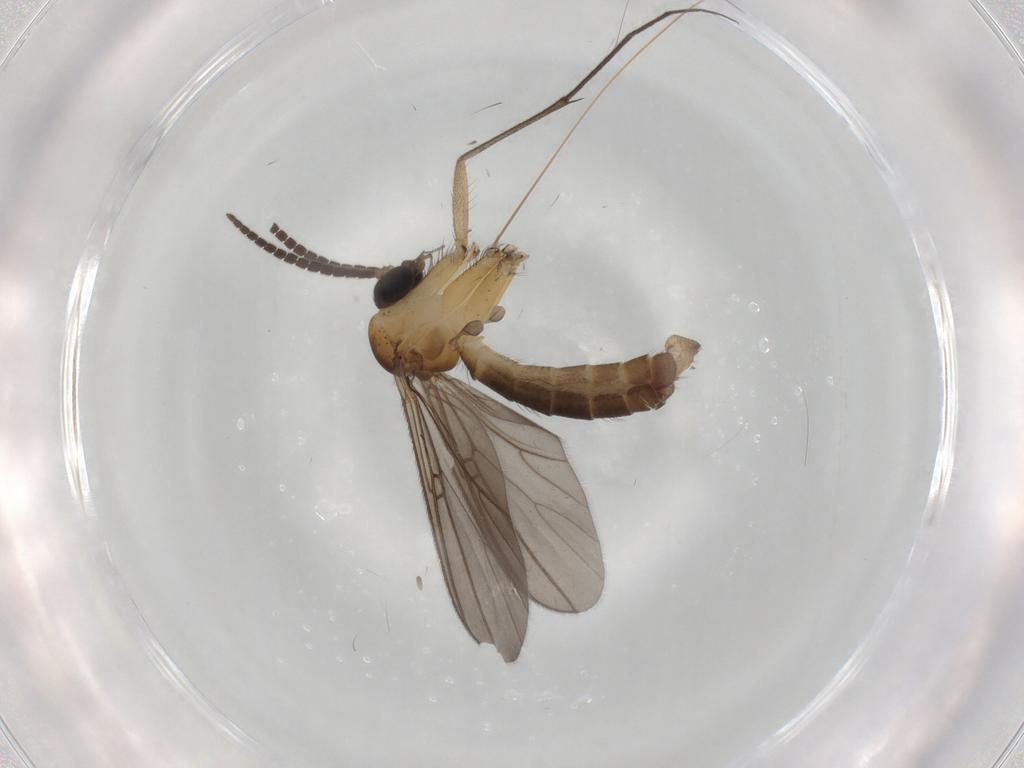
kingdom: Animalia
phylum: Arthropoda
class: Insecta
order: Diptera
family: Cecidomyiidae
